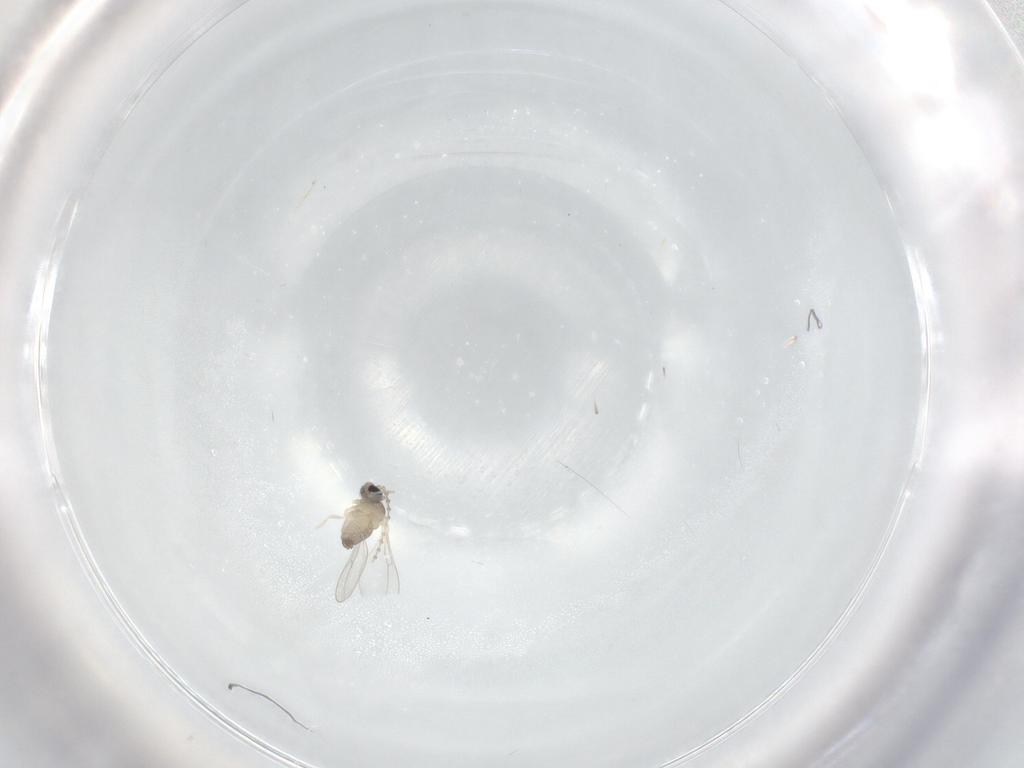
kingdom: Animalia
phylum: Arthropoda
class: Insecta
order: Diptera
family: Cecidomyiidae
